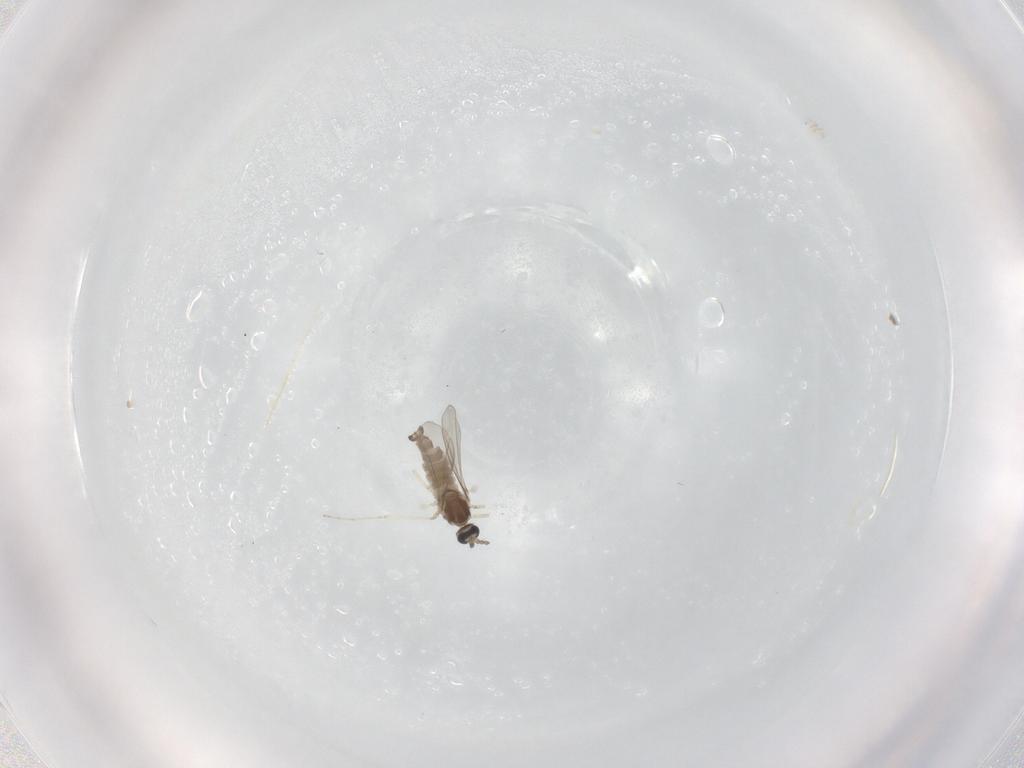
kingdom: Animalia
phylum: Arthropoda
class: Insecta
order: Diptera
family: Cecidomyiidae
